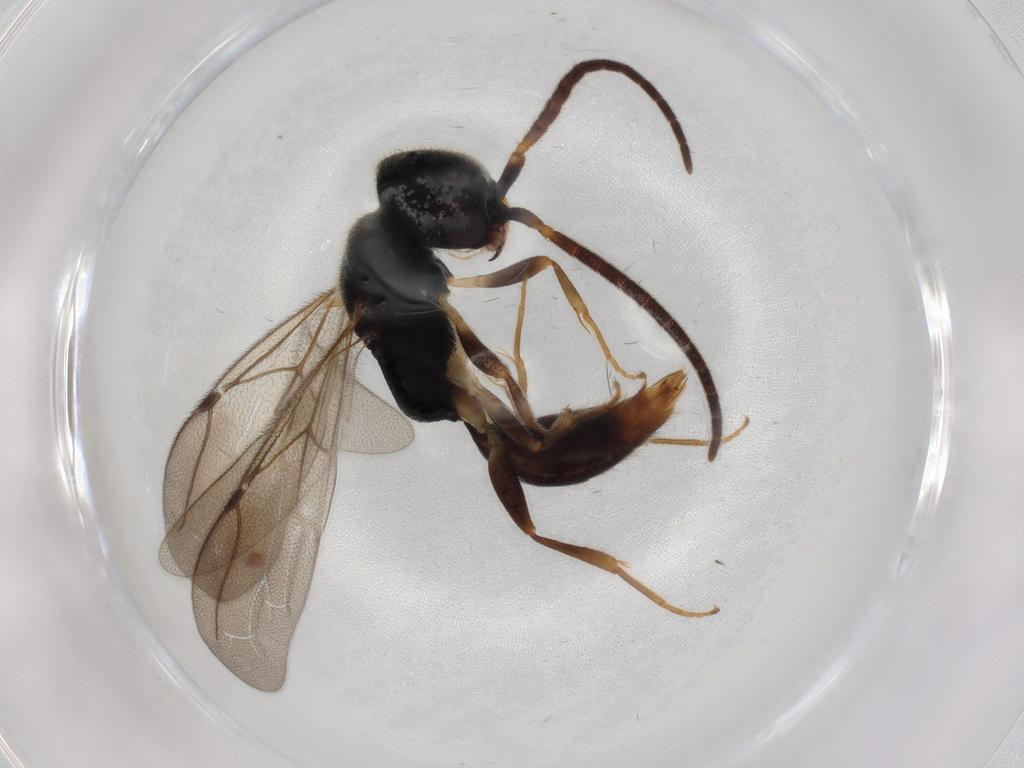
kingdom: Animalia
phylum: Arthropoda
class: Insecta
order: Hymenoptera
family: Bethylidae
